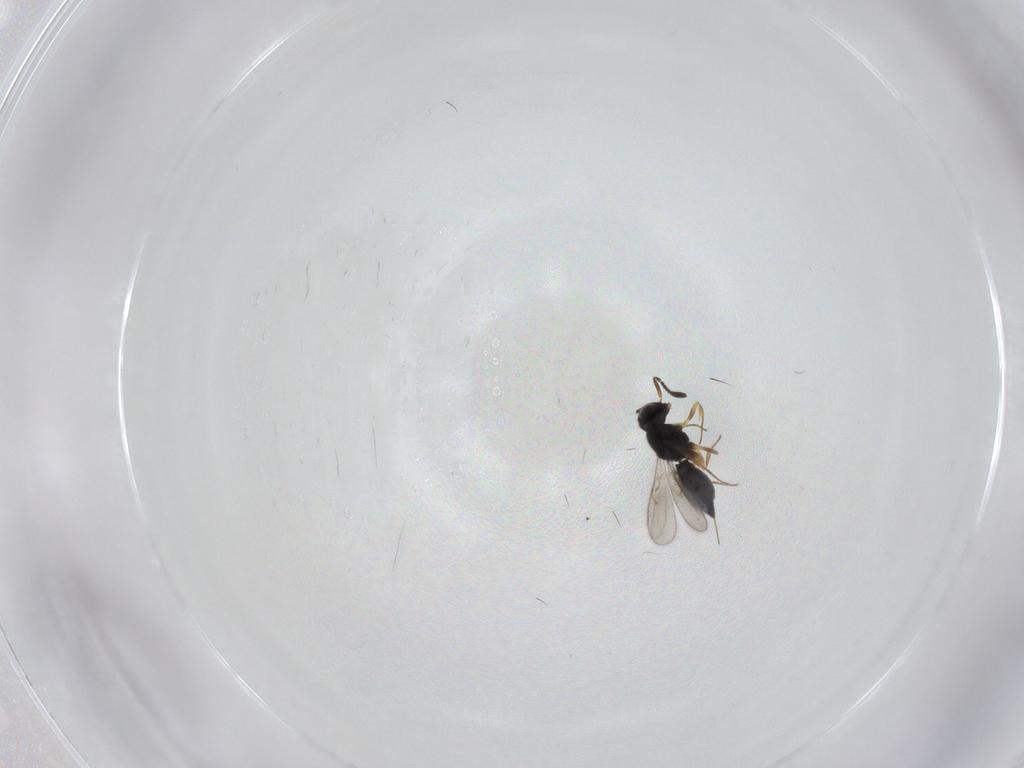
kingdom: Animalia
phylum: Arthropoda
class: Insecta
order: Hymenoptera
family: Scelionidae
